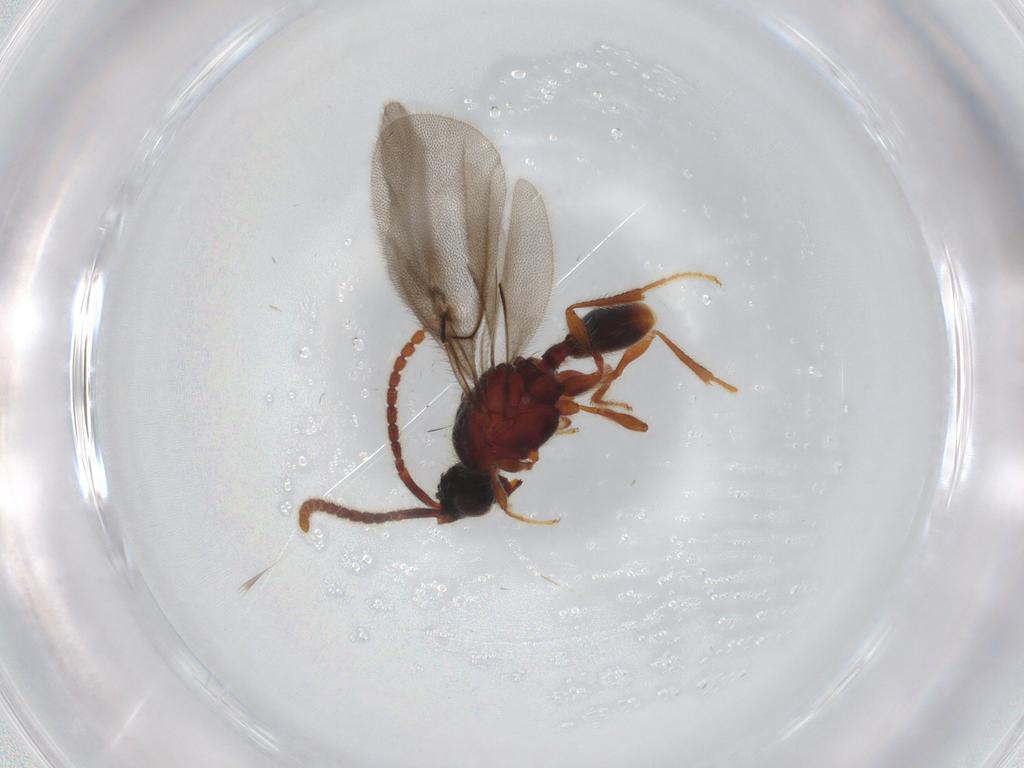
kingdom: Animalia
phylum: Arthropoda
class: Insecta
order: Hymenoptera
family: Diapriidae
